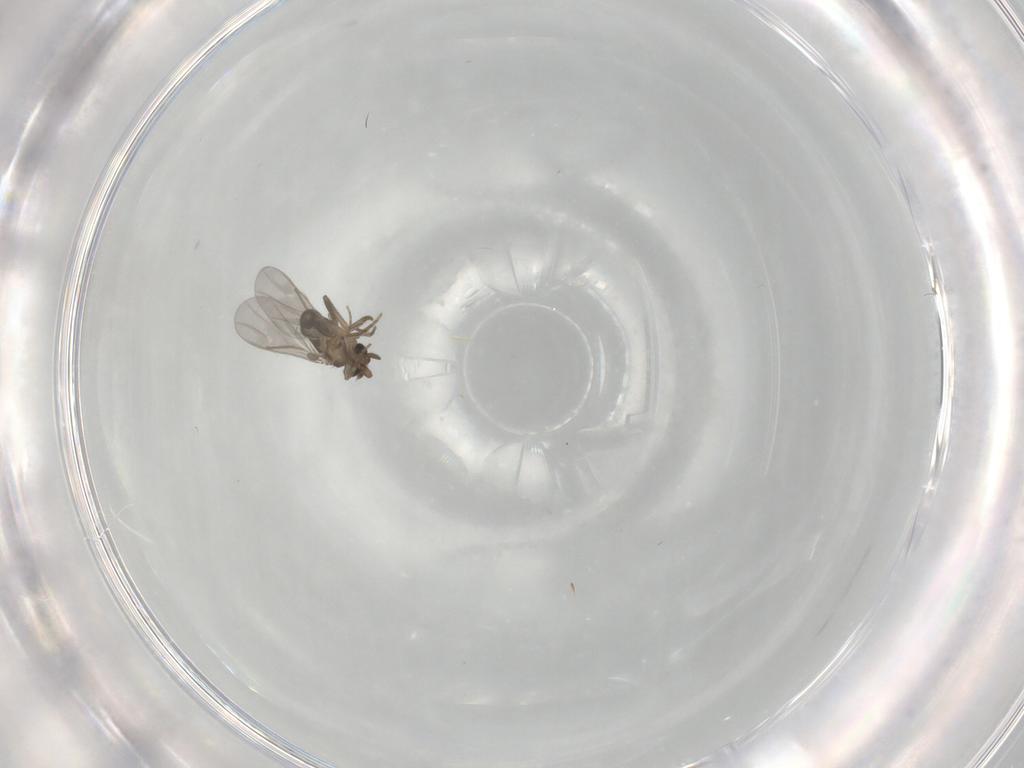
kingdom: Animalia
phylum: Arthropoda
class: Insecta
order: Diptera
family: Cecidomyiidae
